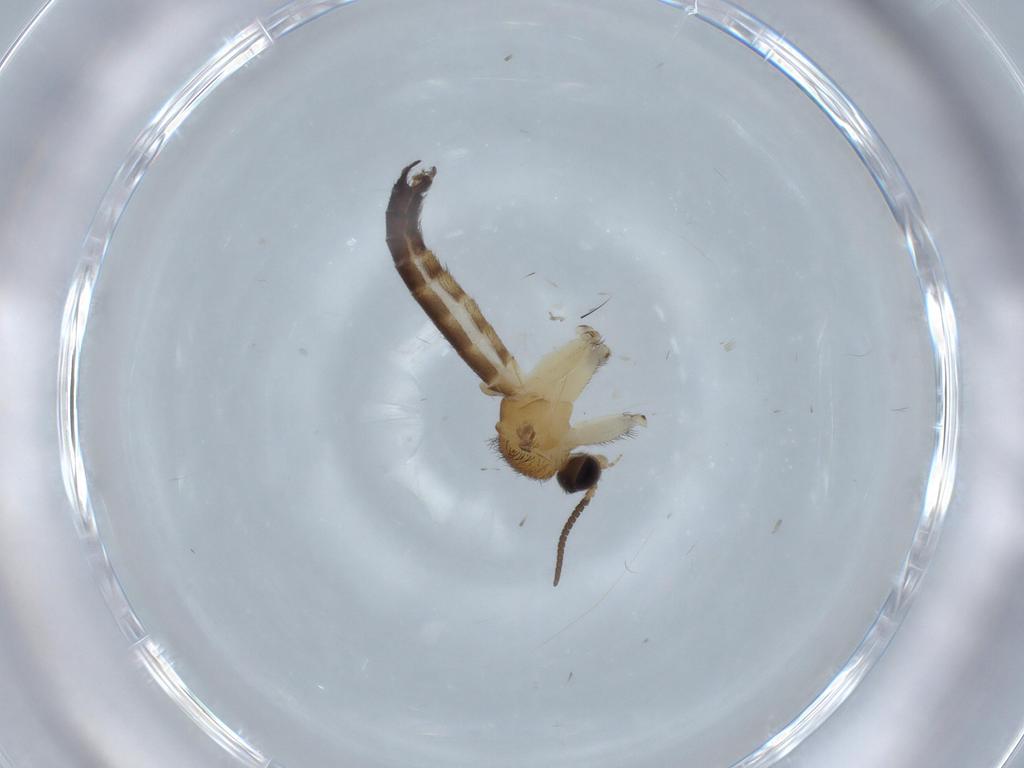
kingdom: Animalia
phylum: Arthropoda
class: Insecta
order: Diptera
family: Keroplatidae
